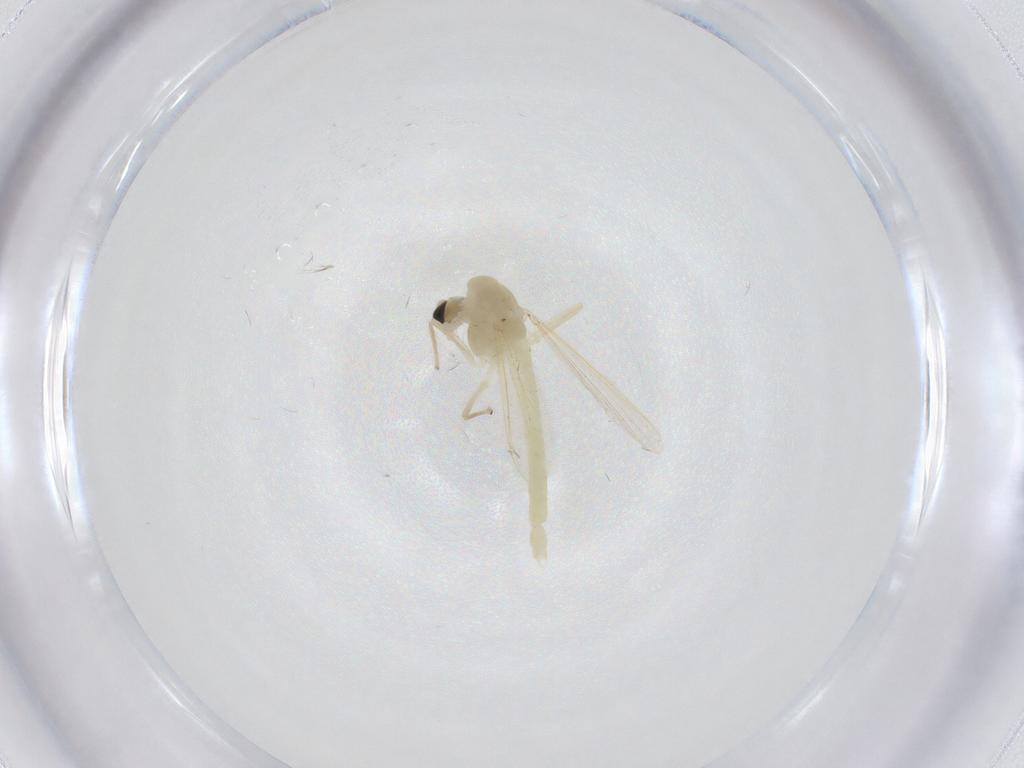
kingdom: Animalia
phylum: Arthropoda
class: Insecta
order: Diptera
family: Chironomidae
